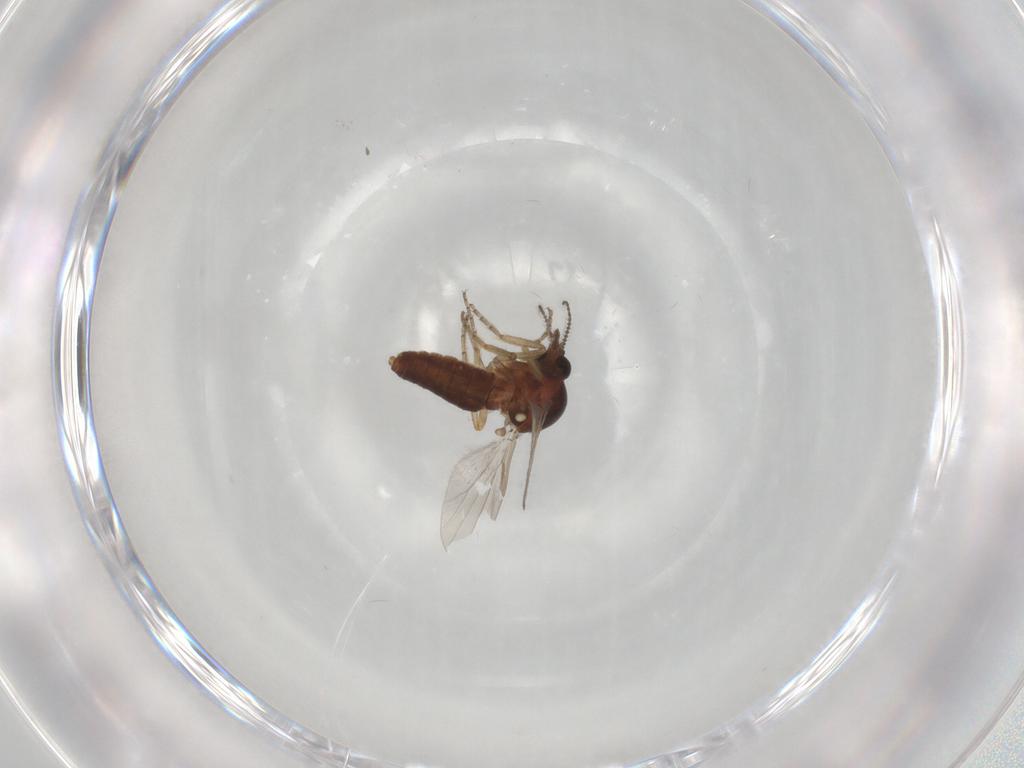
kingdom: Animalia
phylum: Arthropoda
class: Insecta
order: Diptera
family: Ceratopogonidae
